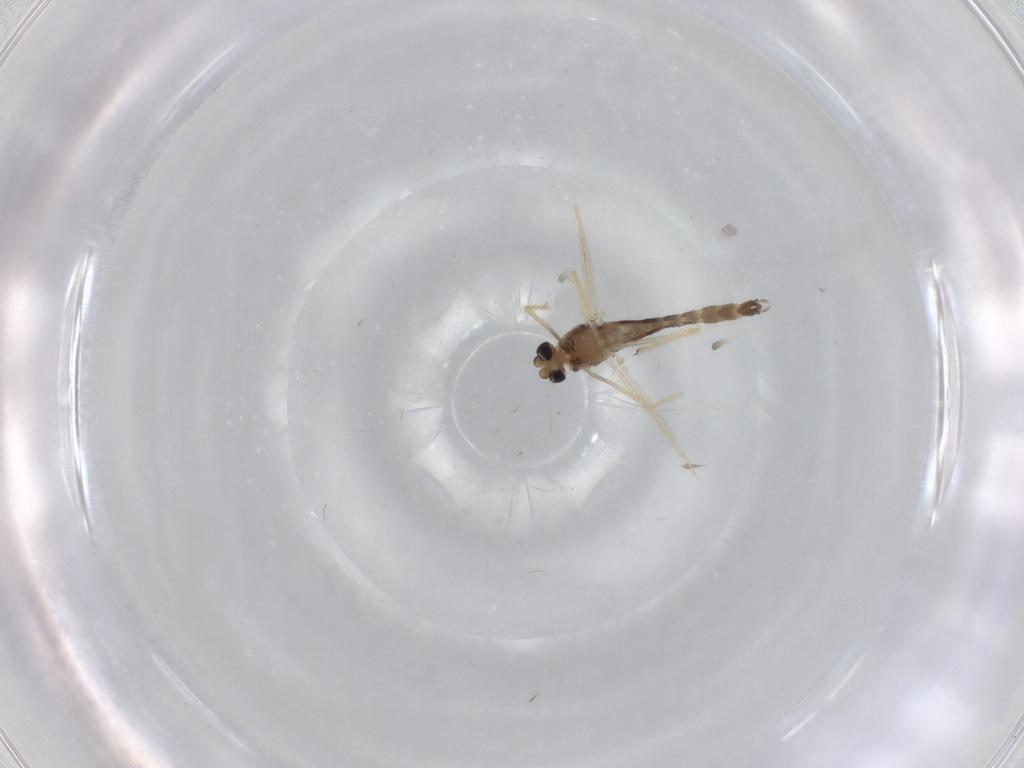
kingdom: Animalia
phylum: Arthropoda
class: Insecta
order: Diptera
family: Chironomidae
